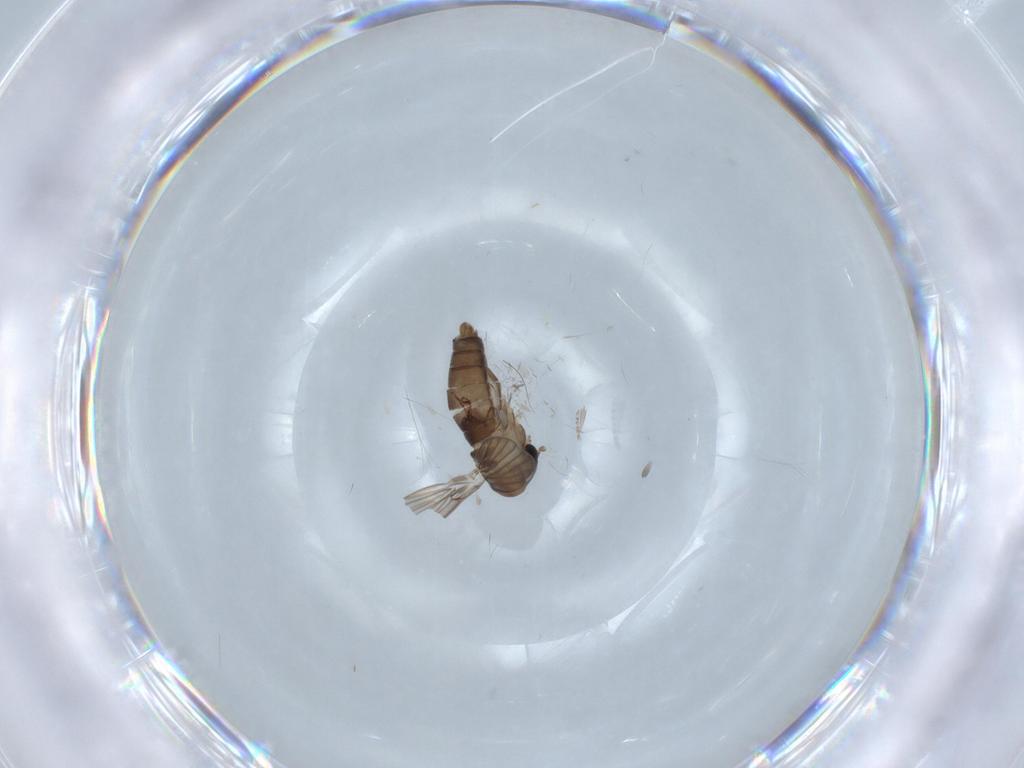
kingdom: Animalia
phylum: Arthropoda
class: Insecta
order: Diptera
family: Psychodidae
